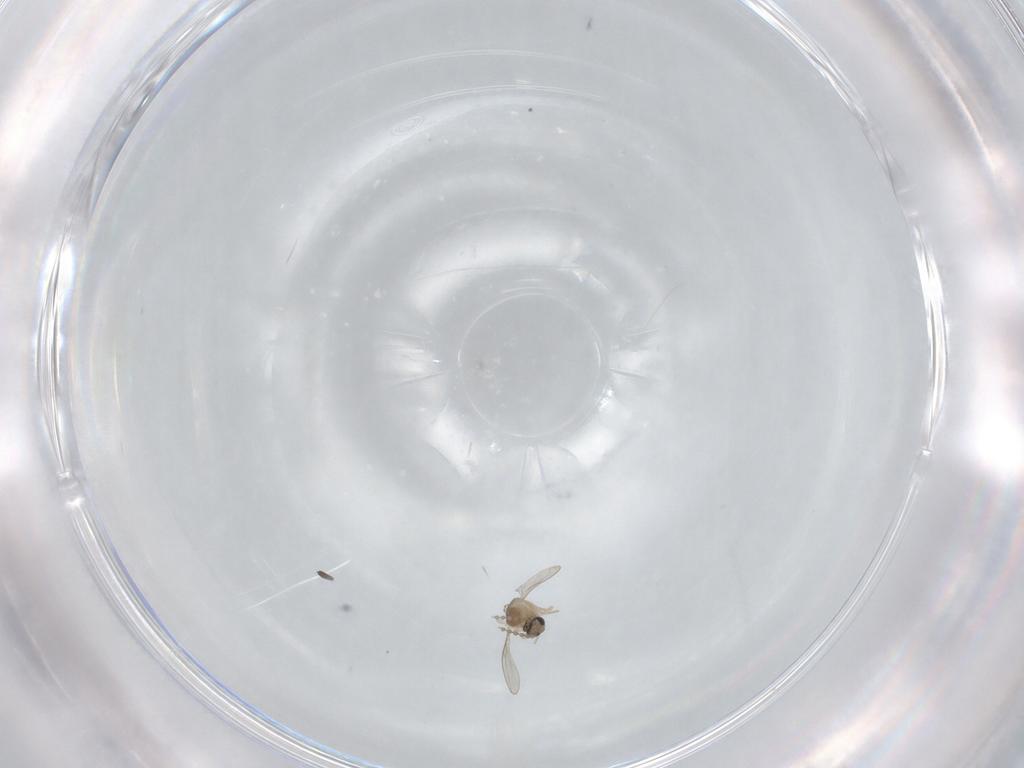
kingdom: Animalia
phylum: Arthropoda
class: Insecta
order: Diptera
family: Cecidomyiidae
